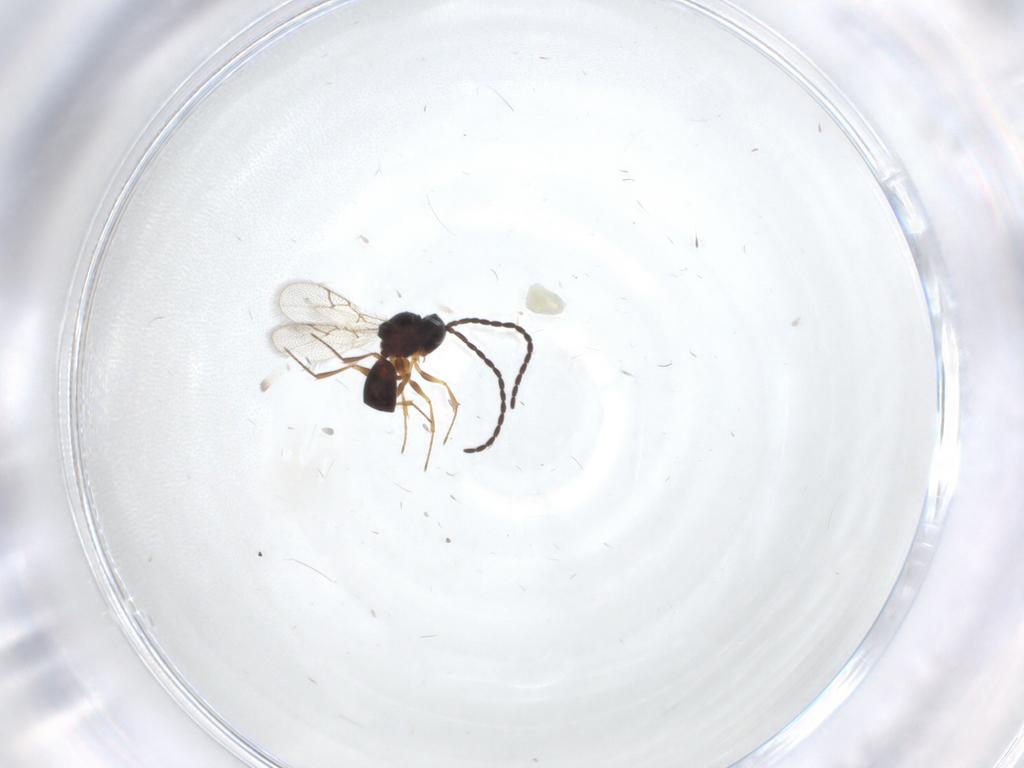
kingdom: Animalia
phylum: Arthropoda
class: Insecta
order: Hymenoptera
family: Figitidae
